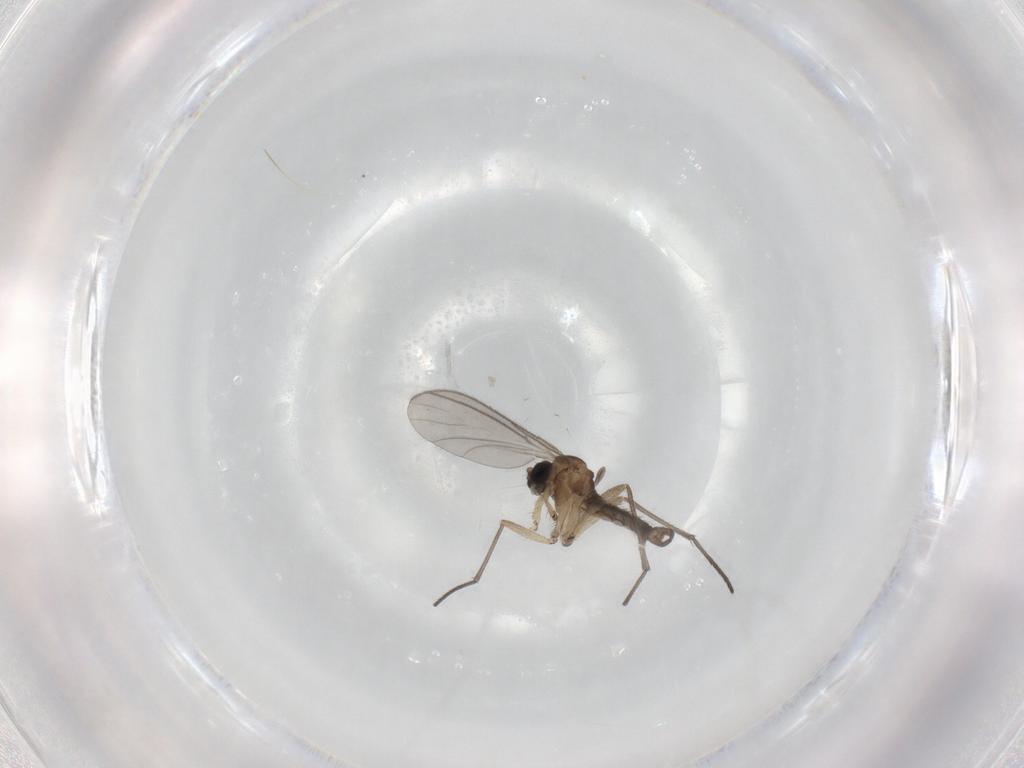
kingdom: Animalia
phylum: Arthropoda
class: Insecta
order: Diptera
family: Sciaridae
